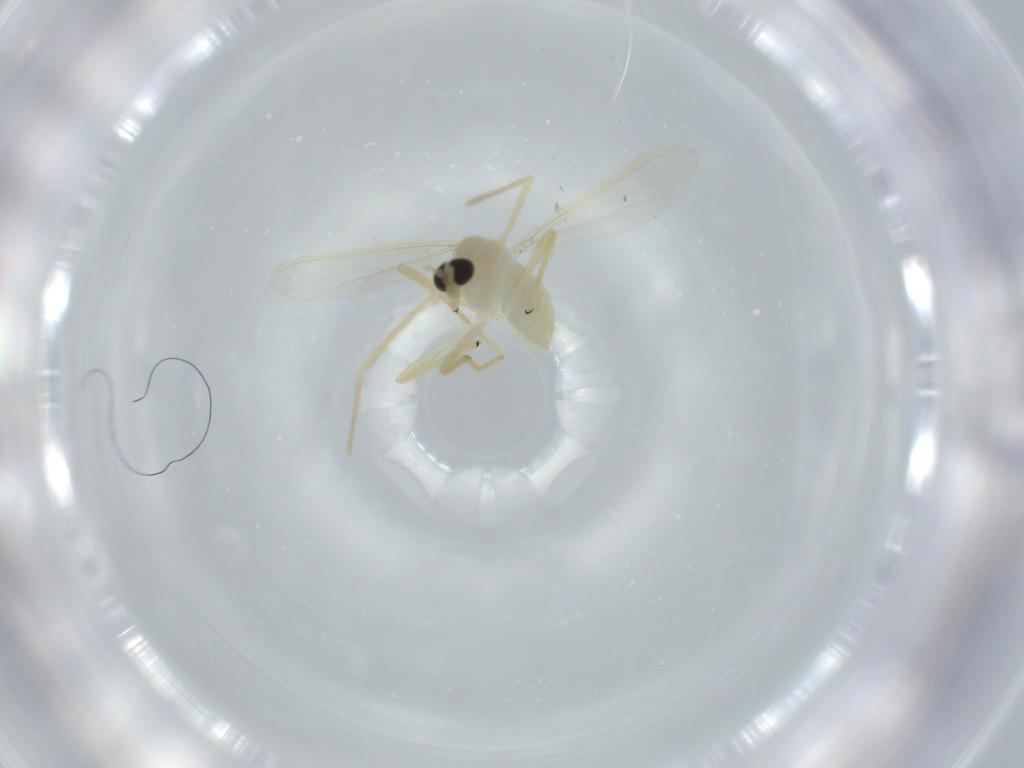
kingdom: Animalia
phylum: Arthropoda
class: Insecta
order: Diptera
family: Chironomidae
